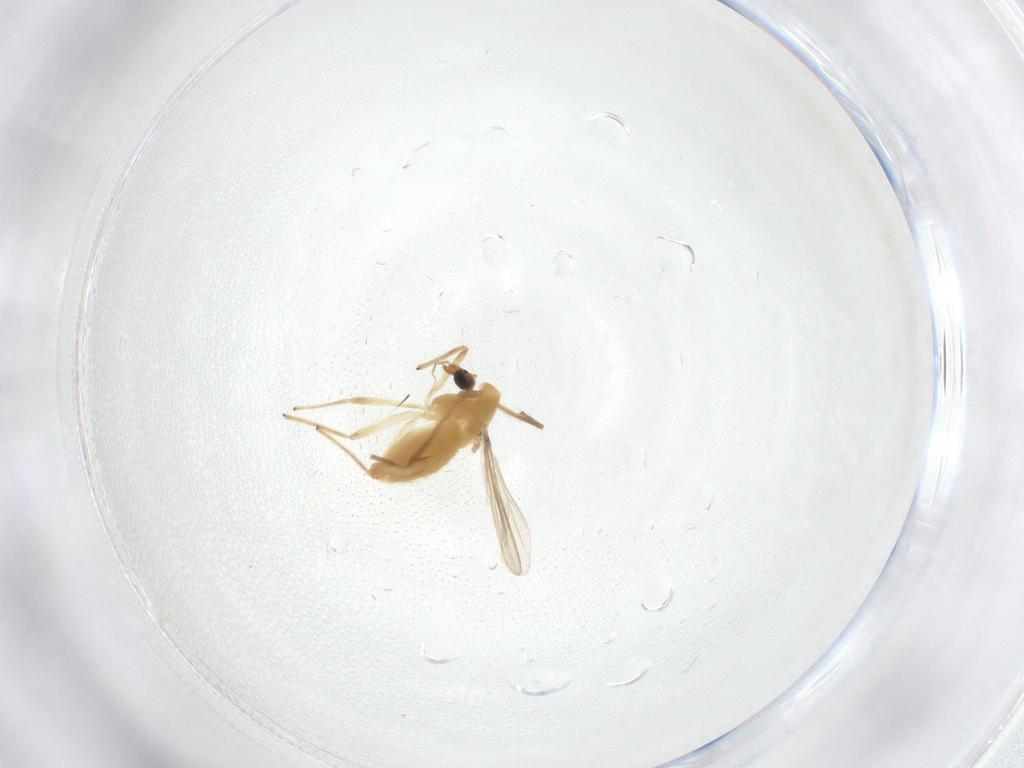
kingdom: Animalia
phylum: Arthropoda
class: Insecta
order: Diptera
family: Chironomidae
